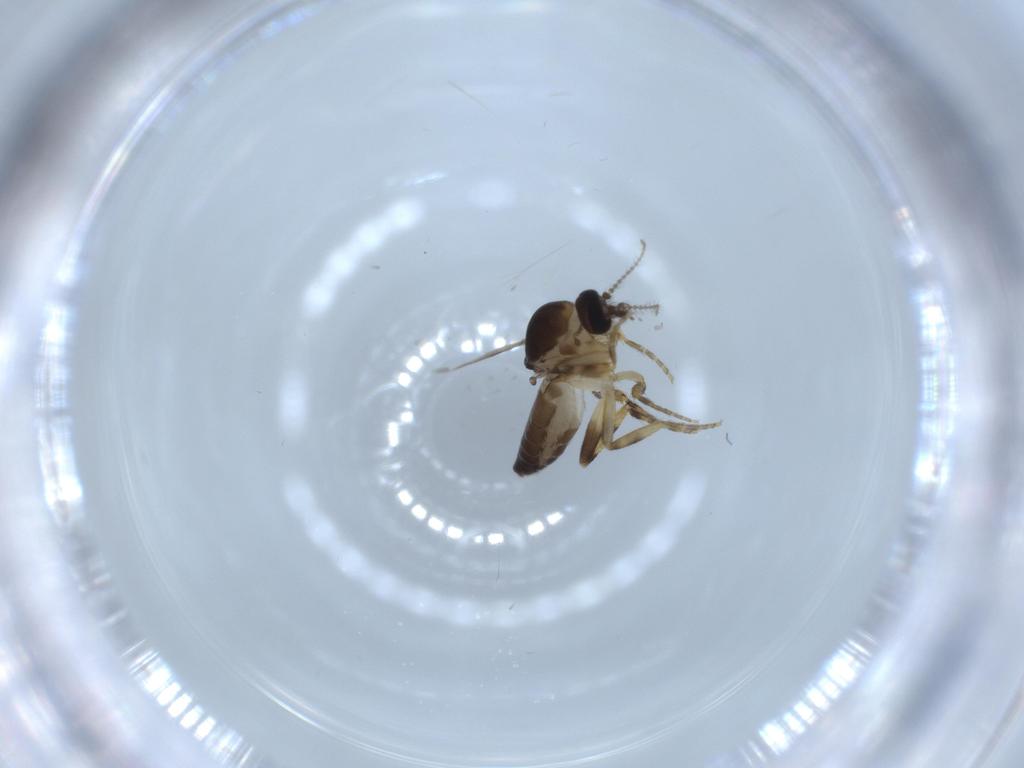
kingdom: Animalia
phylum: Arthropoda
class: Insecta
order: Diptera
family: Ceratopogonidae
